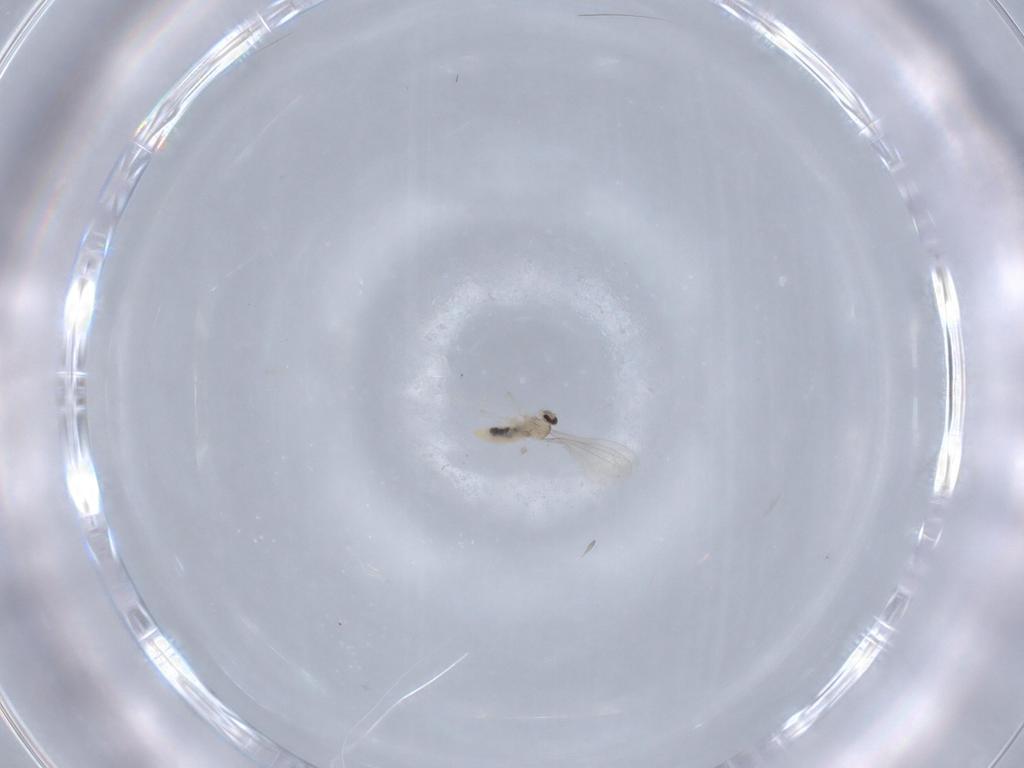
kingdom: Animalia
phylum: Arthropoda
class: Insecta
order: Diptera
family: Cecidomyiidae
